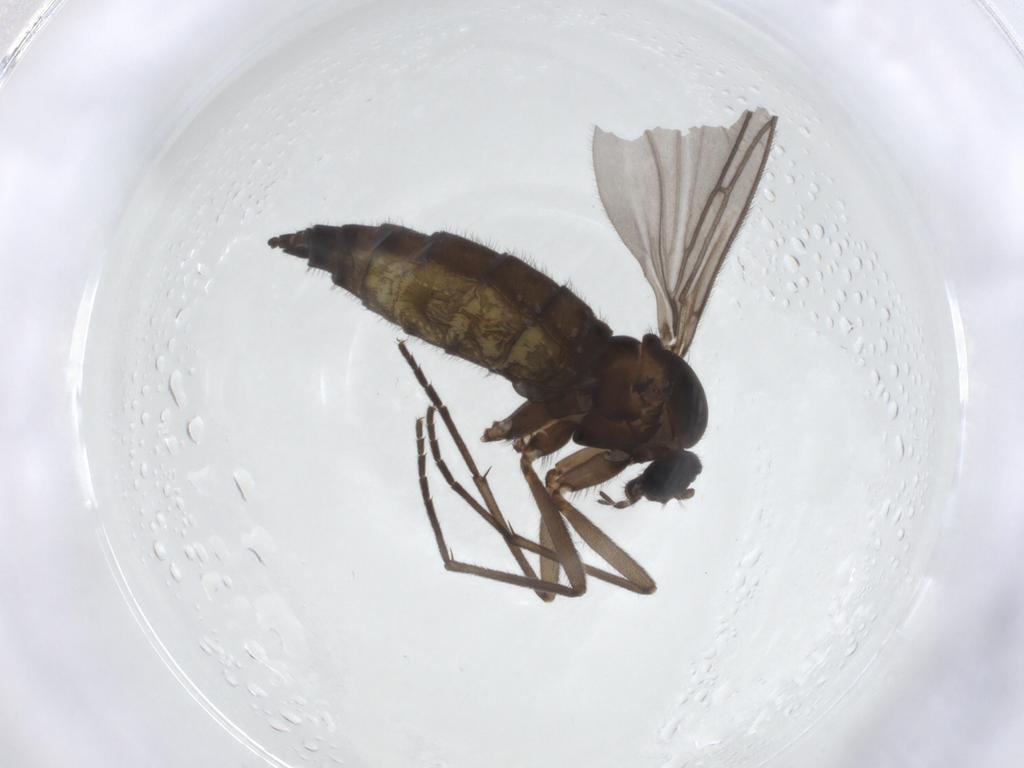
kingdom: Animalia
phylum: Arthropoda
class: Insecta
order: Diptera
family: Sciaridae
